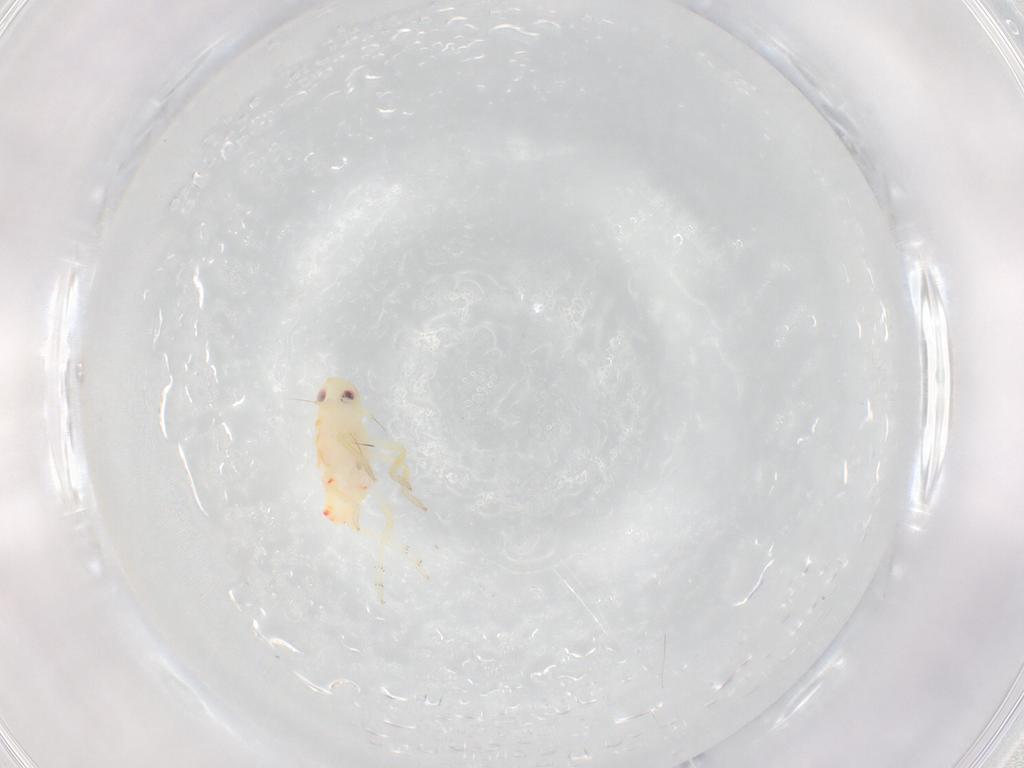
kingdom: Animalia
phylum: Arthropoda
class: Insecta
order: Hemiptera
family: Tropiduchidae
